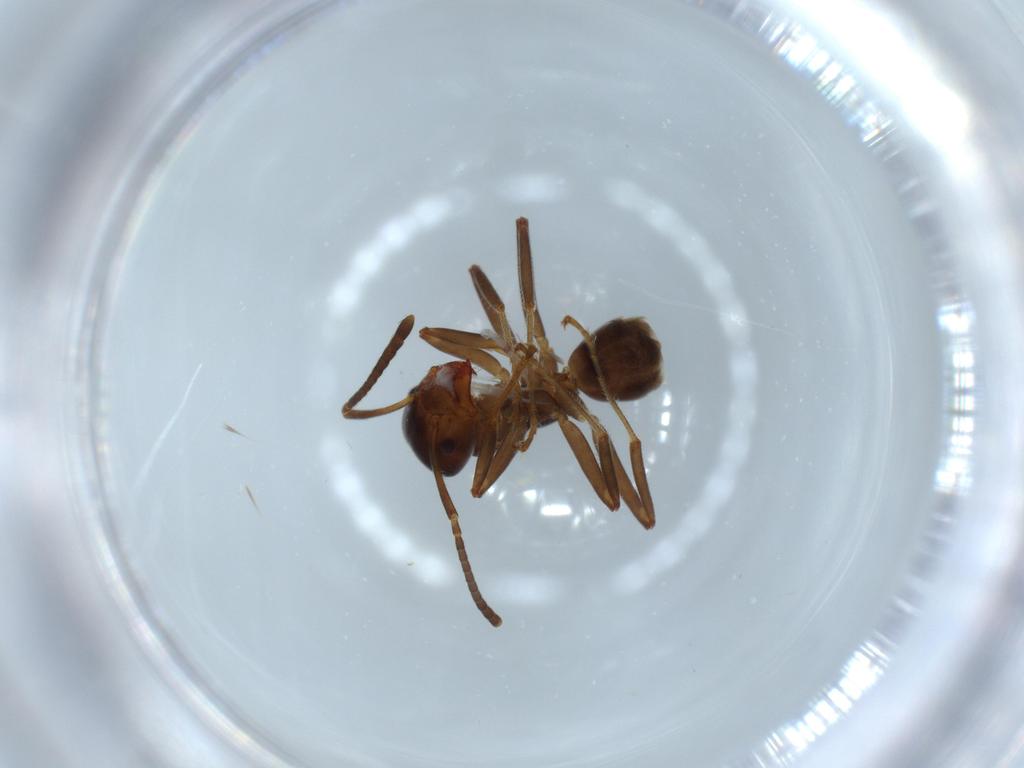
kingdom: Animalia
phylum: Arthropoda
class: Insecta
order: Hymenoptera
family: Formicidae
